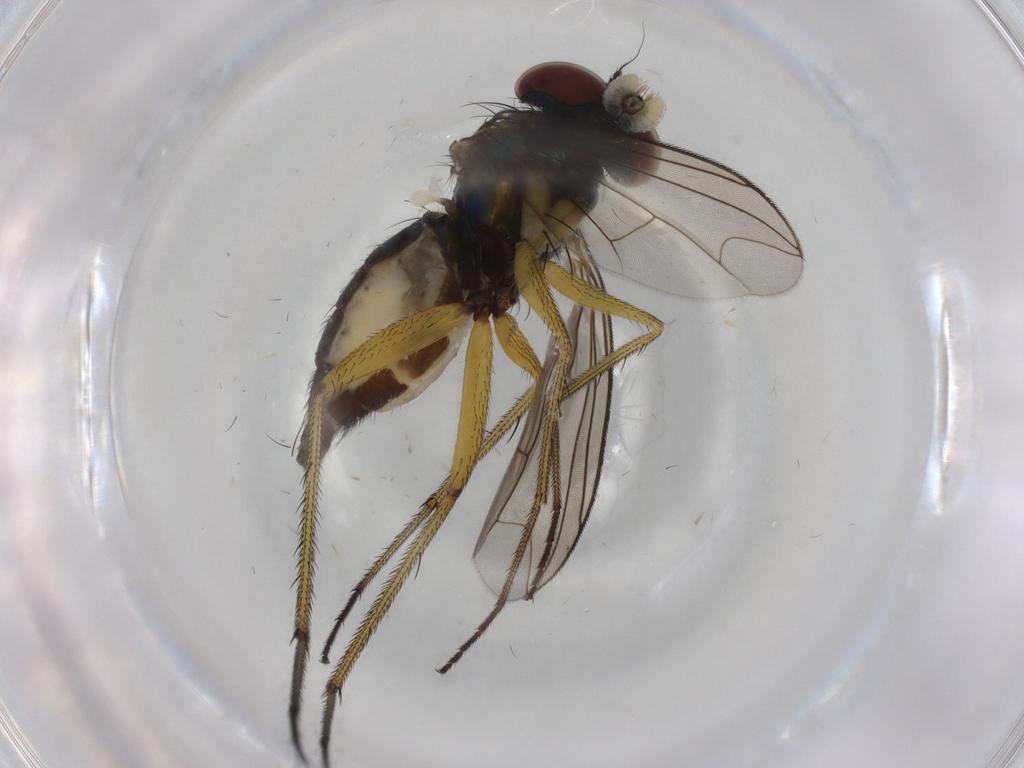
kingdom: Animalia
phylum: Arthropoda
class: Insecta
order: Diptera
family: Dolichopodidae
